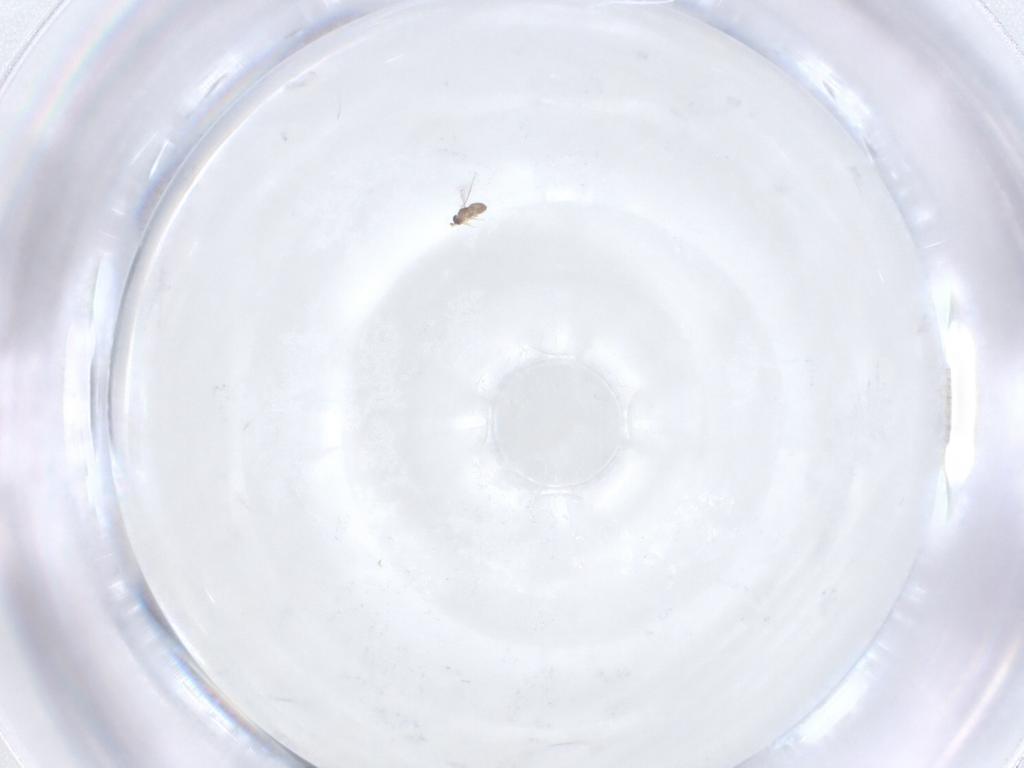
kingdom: Animalia
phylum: Arthropoda
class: Insecta
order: Hymenoptera
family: Mymaridae
